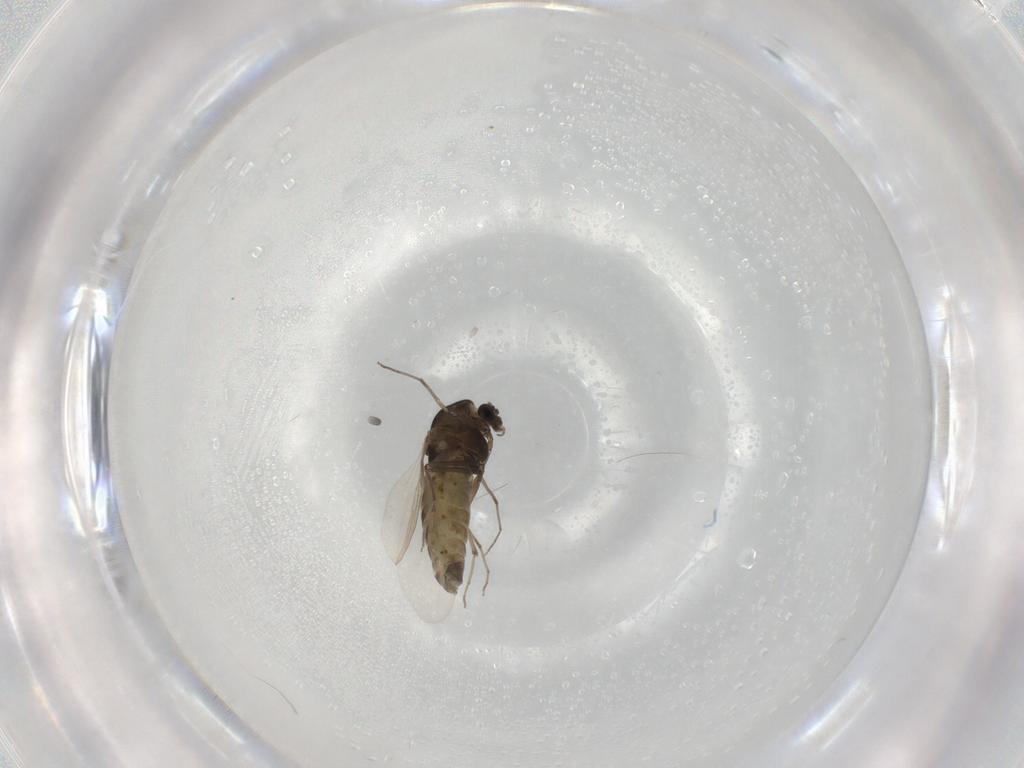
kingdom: Animalia
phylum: Arthropoda
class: Insecta
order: Diptera
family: Chironomidae
